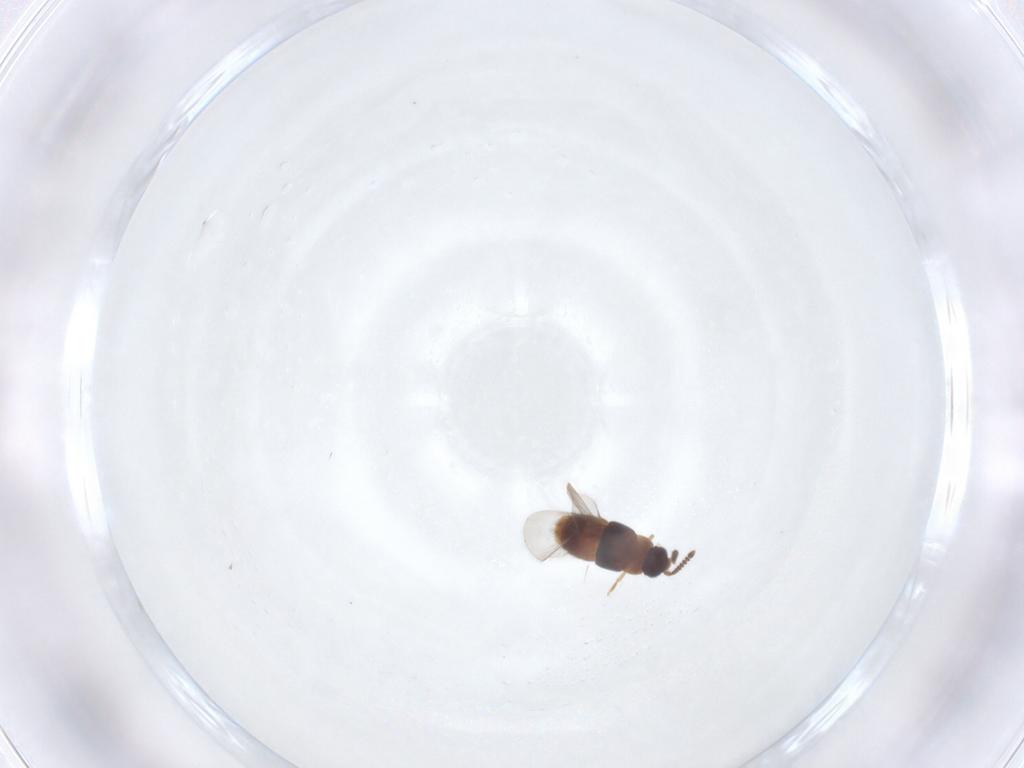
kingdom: Animalia
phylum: Arthropoda
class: Insecta
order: Coleoptera
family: Staphylinidae
